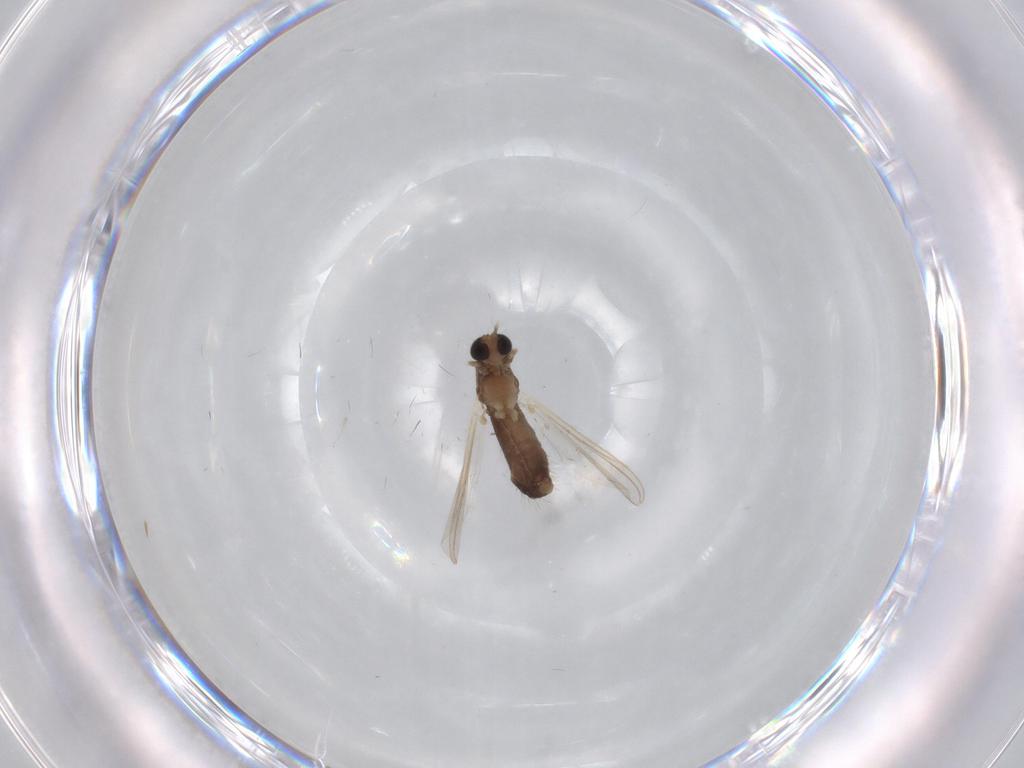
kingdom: Animalia
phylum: Arthropoda
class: Insecta
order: Diptera
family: Chironomidae
